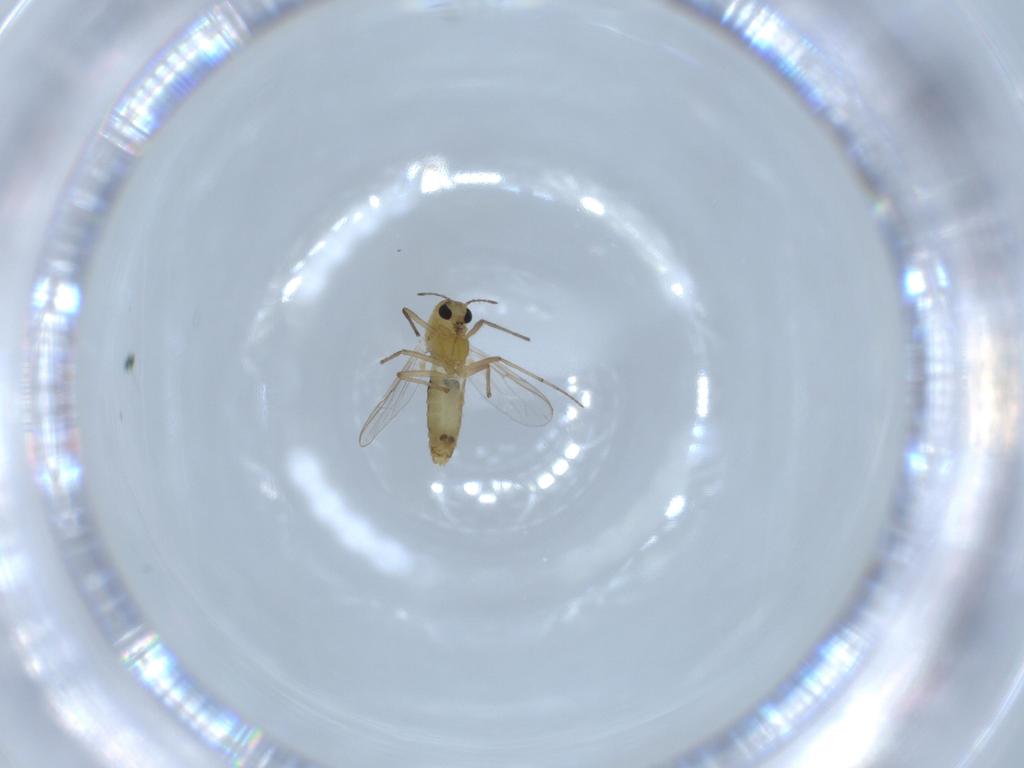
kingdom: Animalia
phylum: Arthropoda
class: Insecta
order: Diptera
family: Chironomidae
